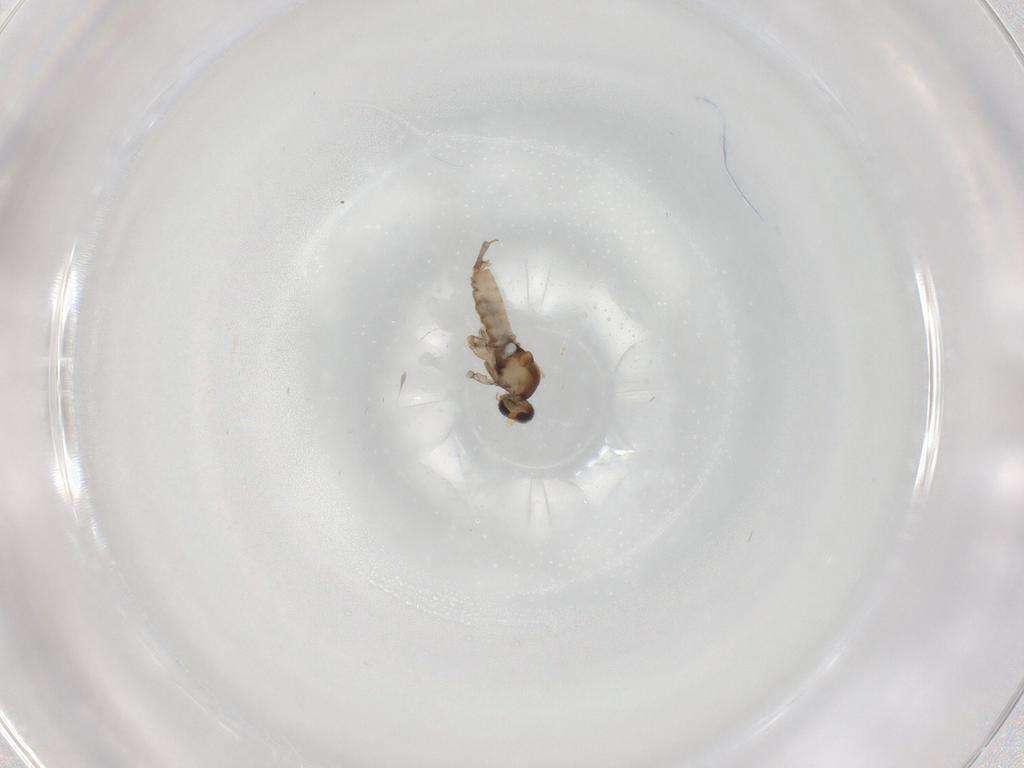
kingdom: Animalia
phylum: Arthropoda
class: Insecta
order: Diptera
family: Cecidomyiidae
